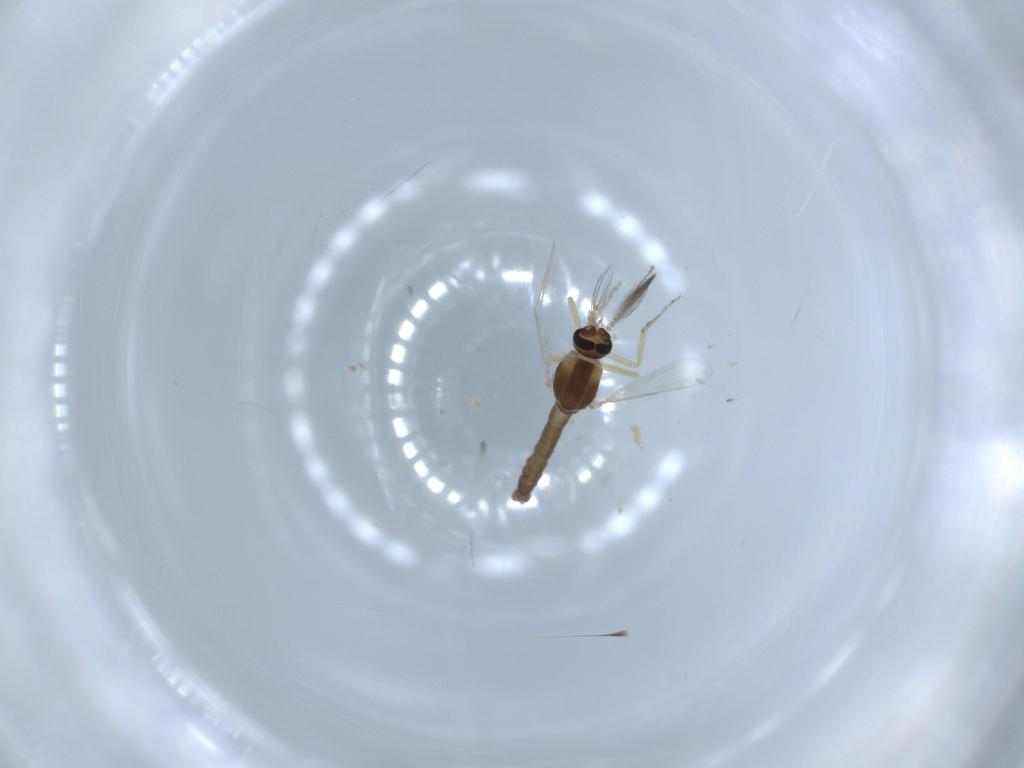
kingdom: Animalia
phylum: Arthropoda
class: Insecta
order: Diptera
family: Ceratopogonidae
